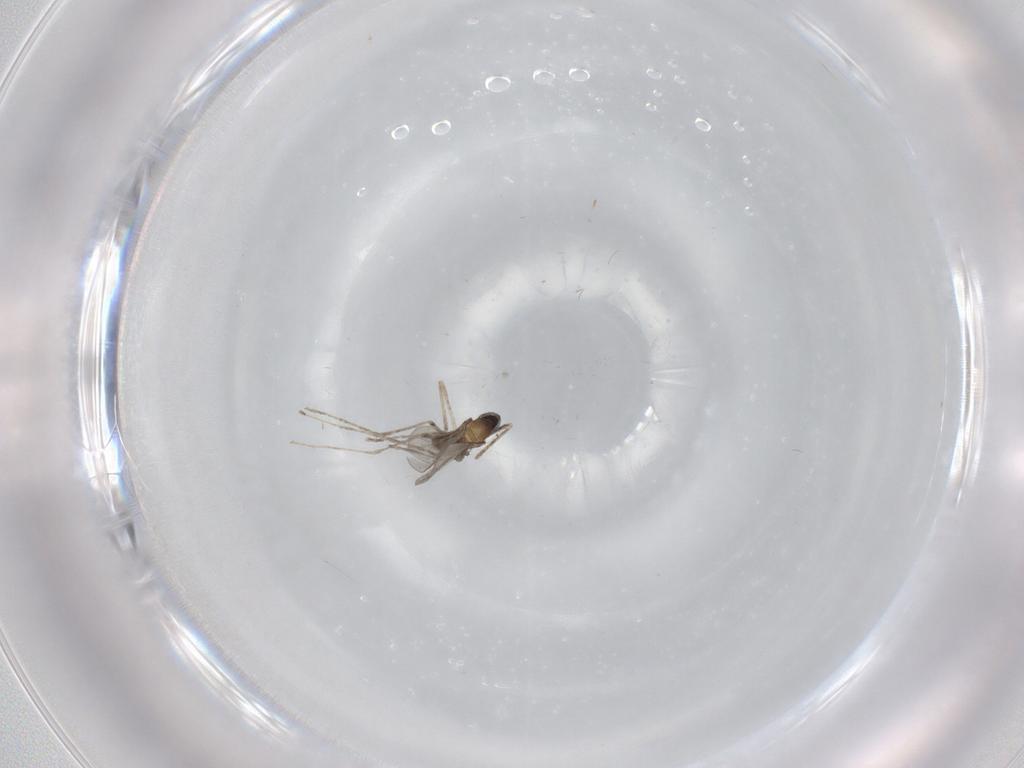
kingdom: Animalia
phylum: Arthropoda
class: Insecta
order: Diptera
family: Cecidomyiidae
